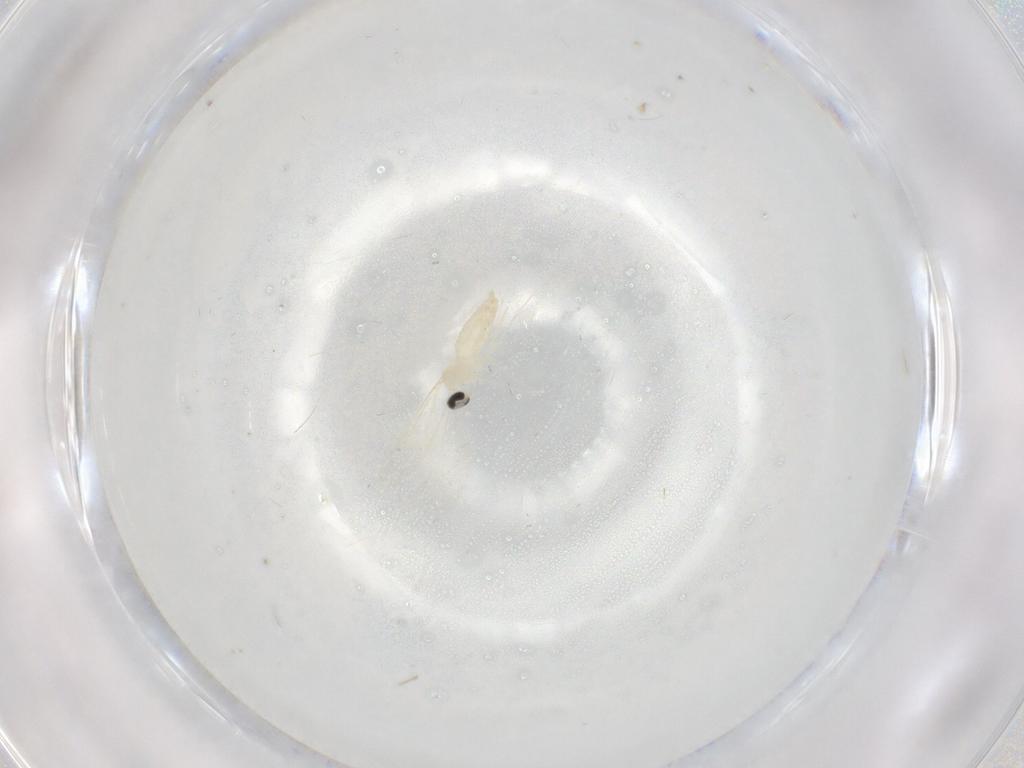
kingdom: Animalia
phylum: Arthropoda
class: Insecta
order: Diptera
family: Cecidomyiidae
